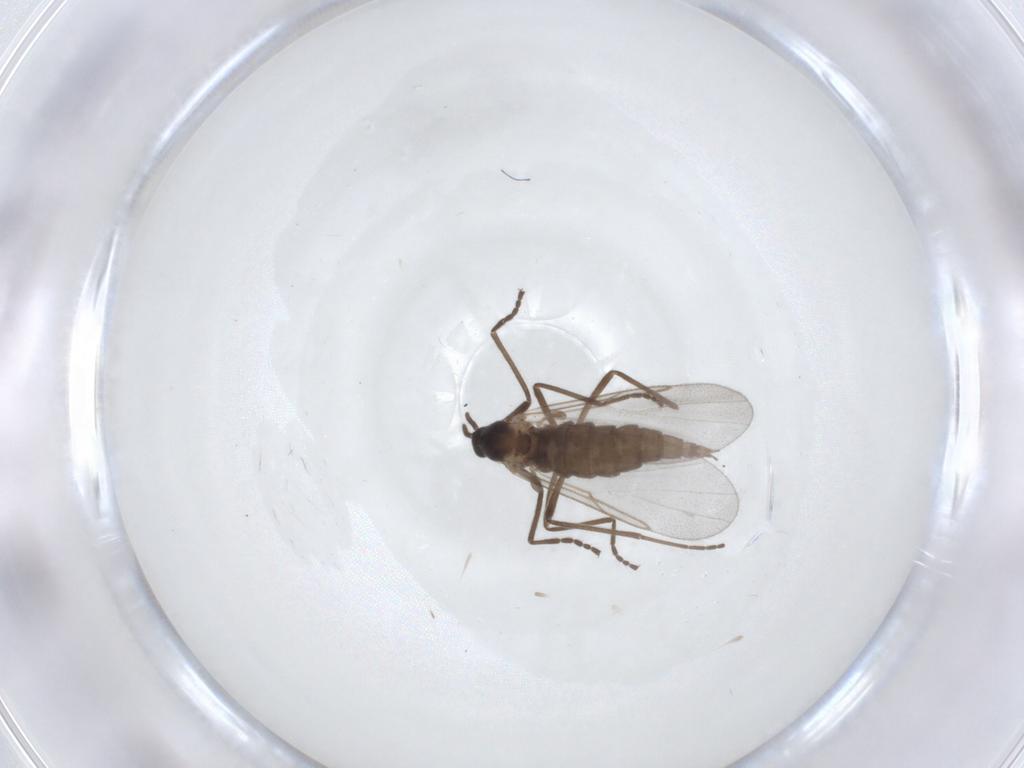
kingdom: Animalia
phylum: Arthropoda
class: Insecta
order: Diptera
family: Cecidomyiidae
